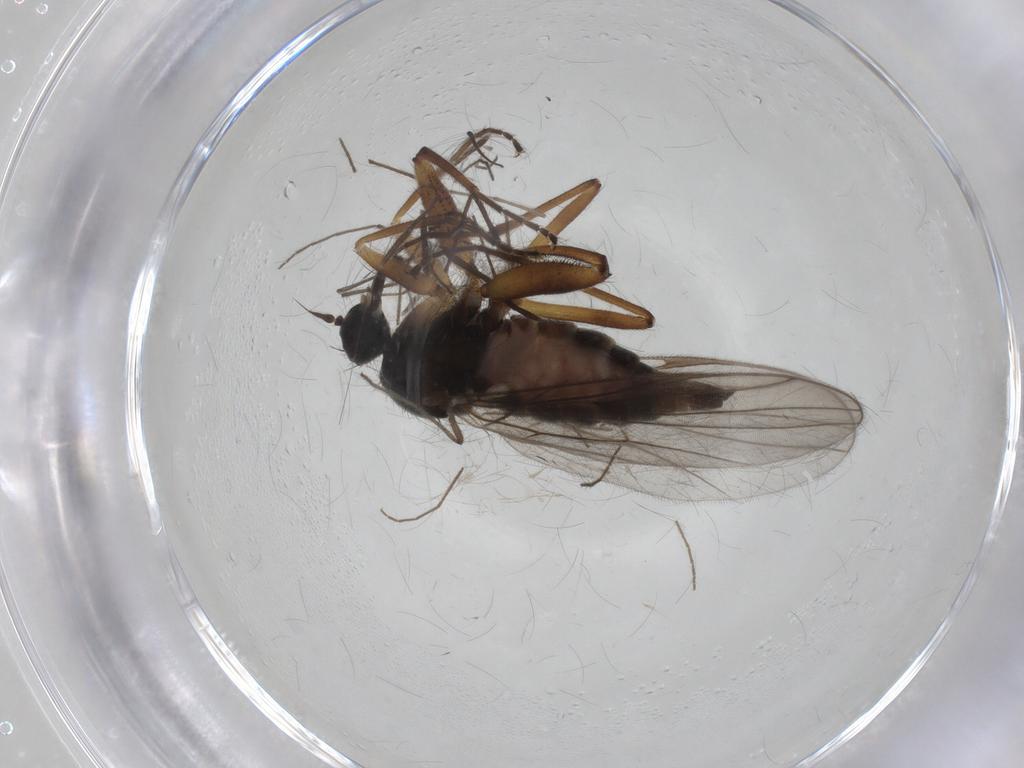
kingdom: Animalia
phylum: Arthropoda
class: Insecta
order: Diptera
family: Hybotidae
